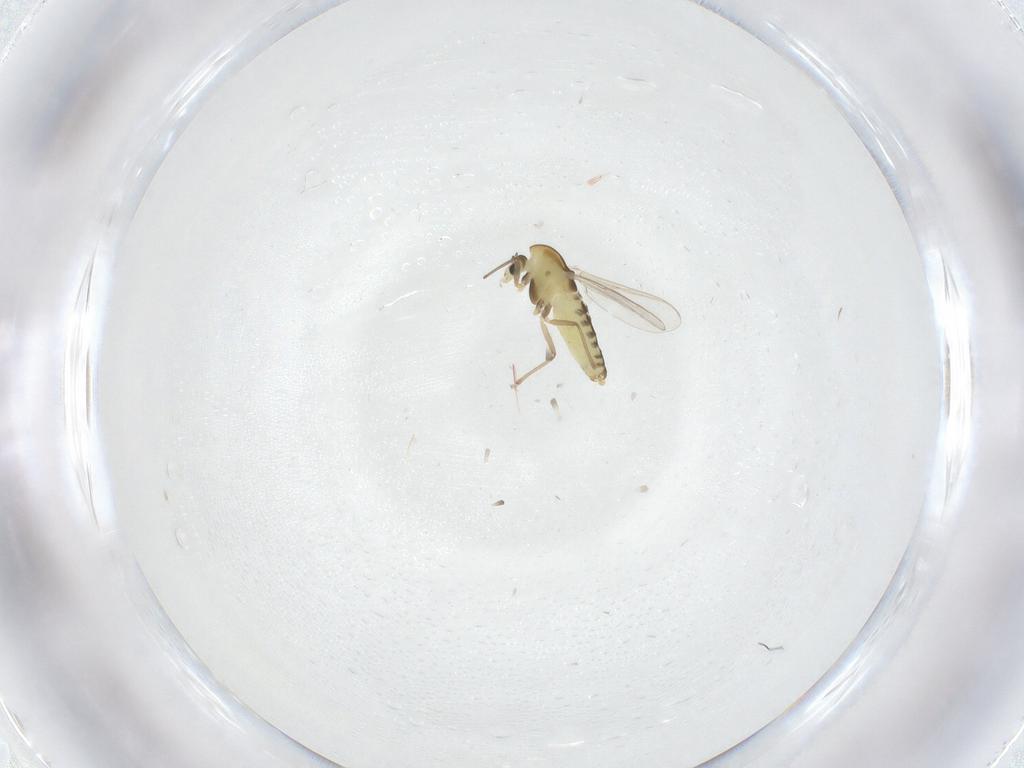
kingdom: Animalia
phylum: Arthropoda
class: Insecta
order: Diptera
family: Chironomidae
